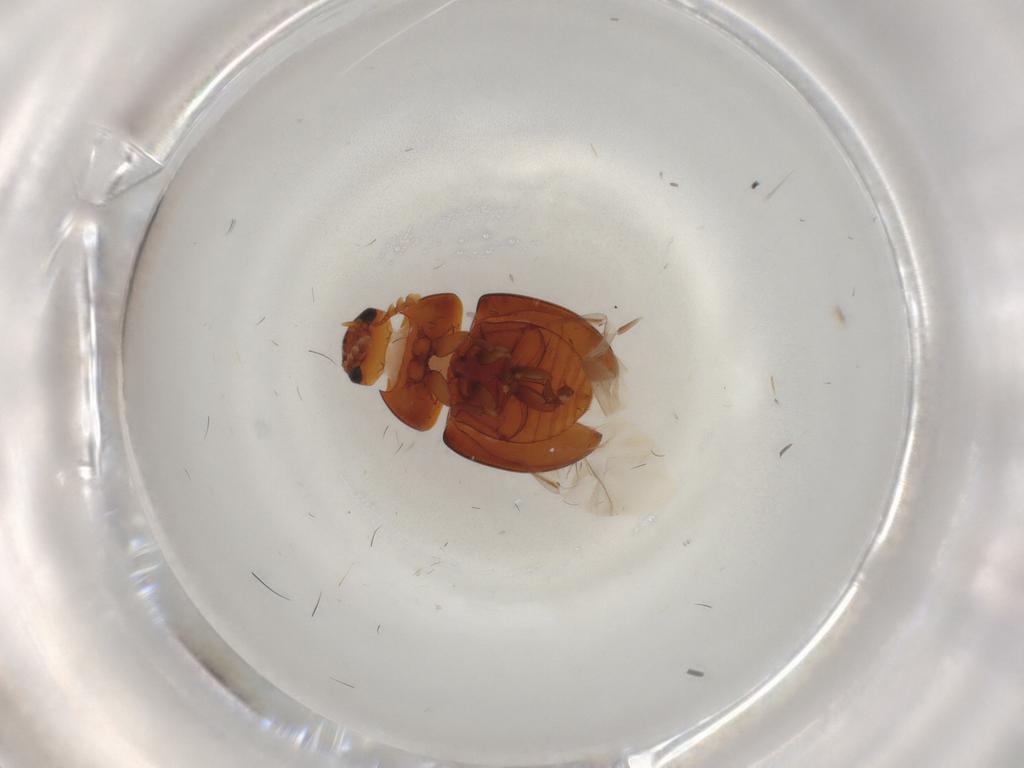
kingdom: Animalia
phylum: Arthropoda
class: Insecta
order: Coleoptera
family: Phalacridae
